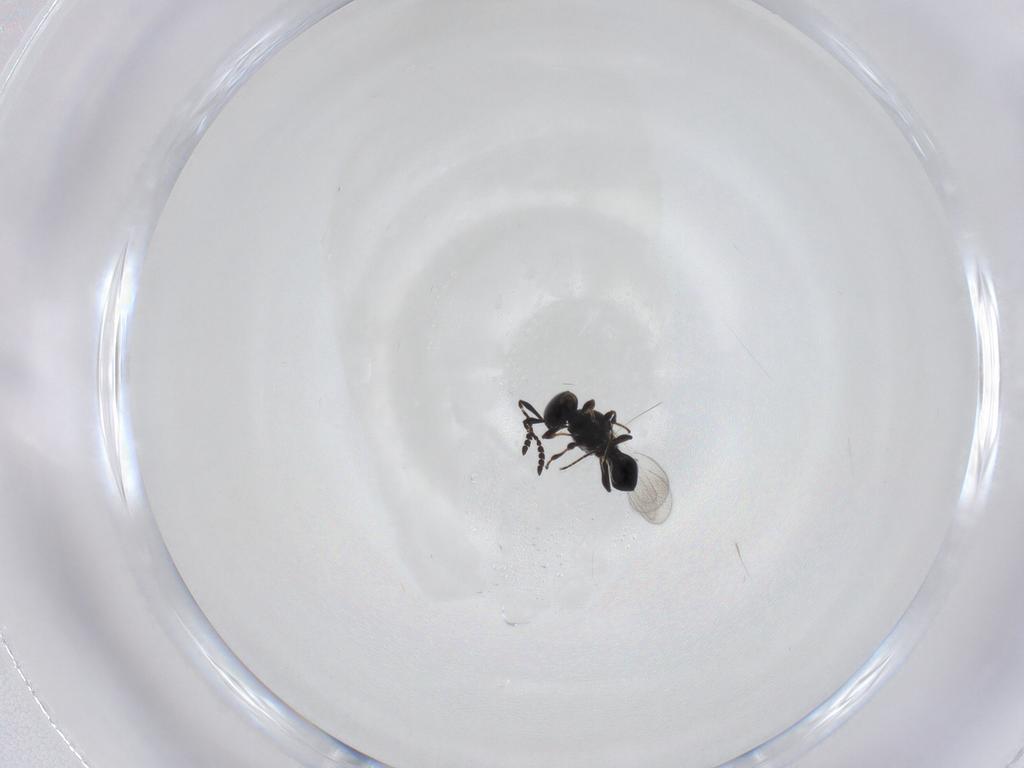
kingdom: Animalia
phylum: Arthropoda
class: Insecta
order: Hymenoptera
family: Platygastridae
